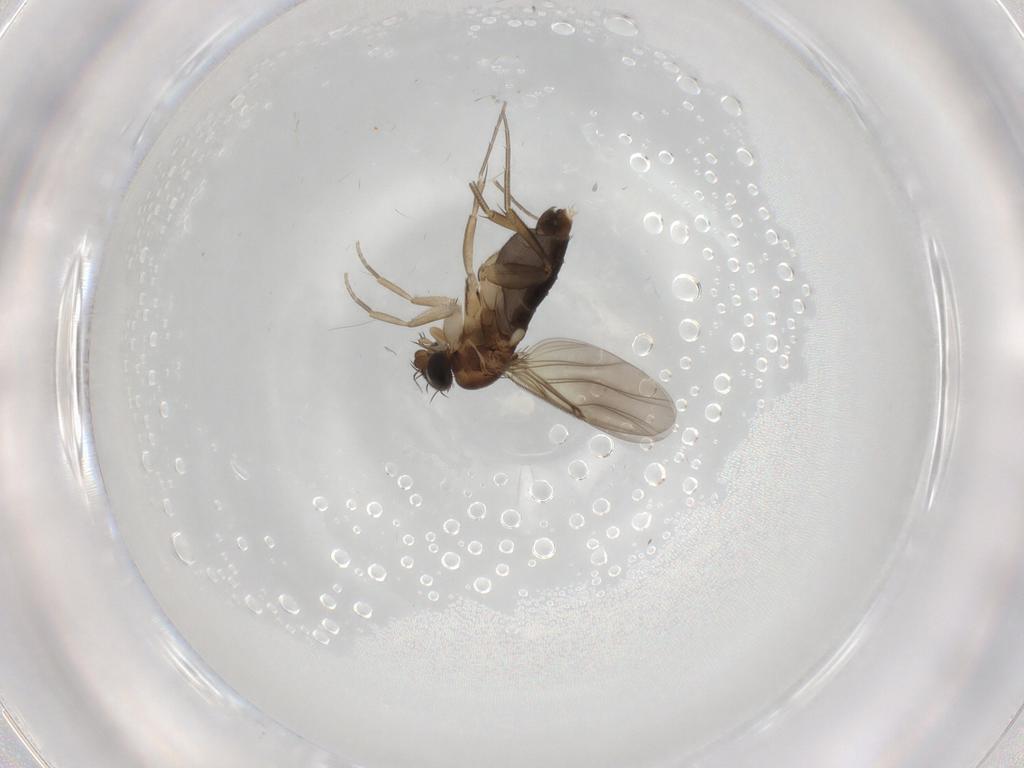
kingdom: Animalia
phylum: Arthropoda
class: Insecta
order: Diptera
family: Phoridae
